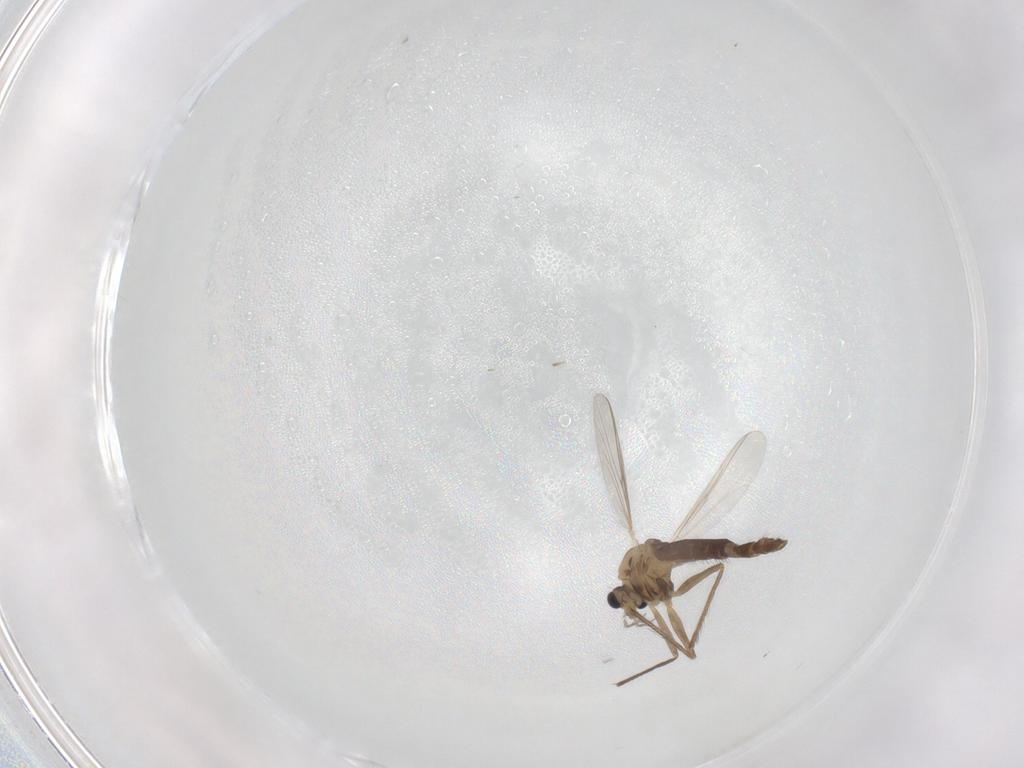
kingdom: Animalia
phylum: Arthropoda
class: Insecta
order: Diptera
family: Chironomidae
